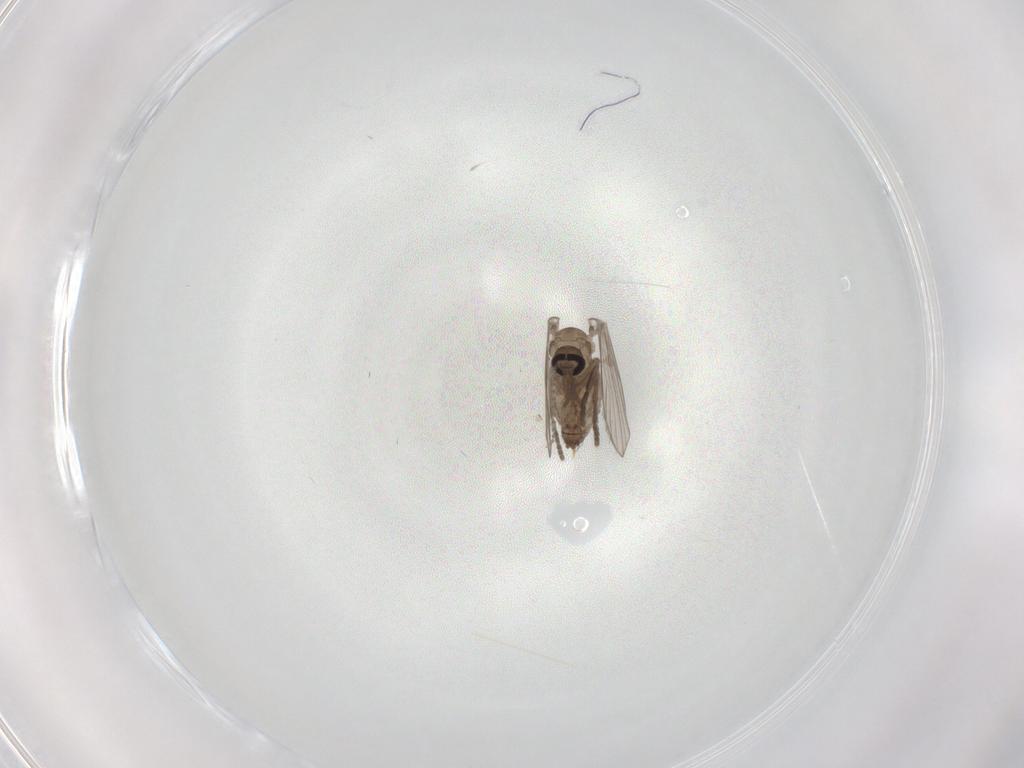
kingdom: Animalia
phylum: Arthropoda
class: Insecta
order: Diptera
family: Psychodidae
